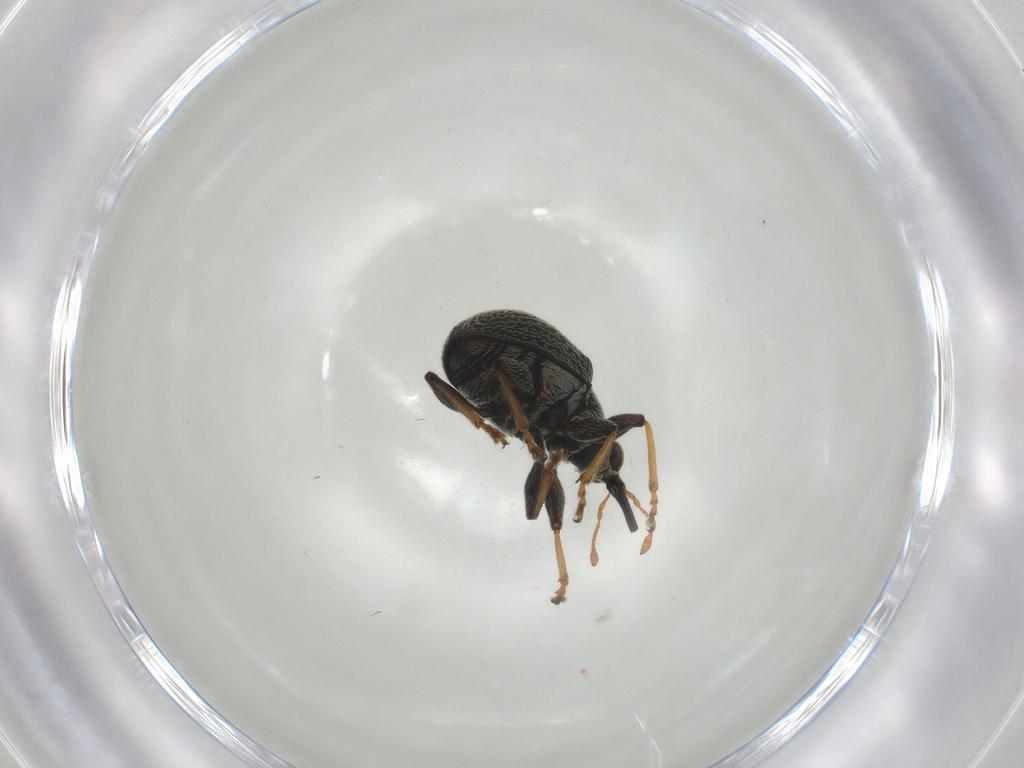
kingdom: Animalia
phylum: Arthropoda
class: Insecta
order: Coleoptera
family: Brentidae
